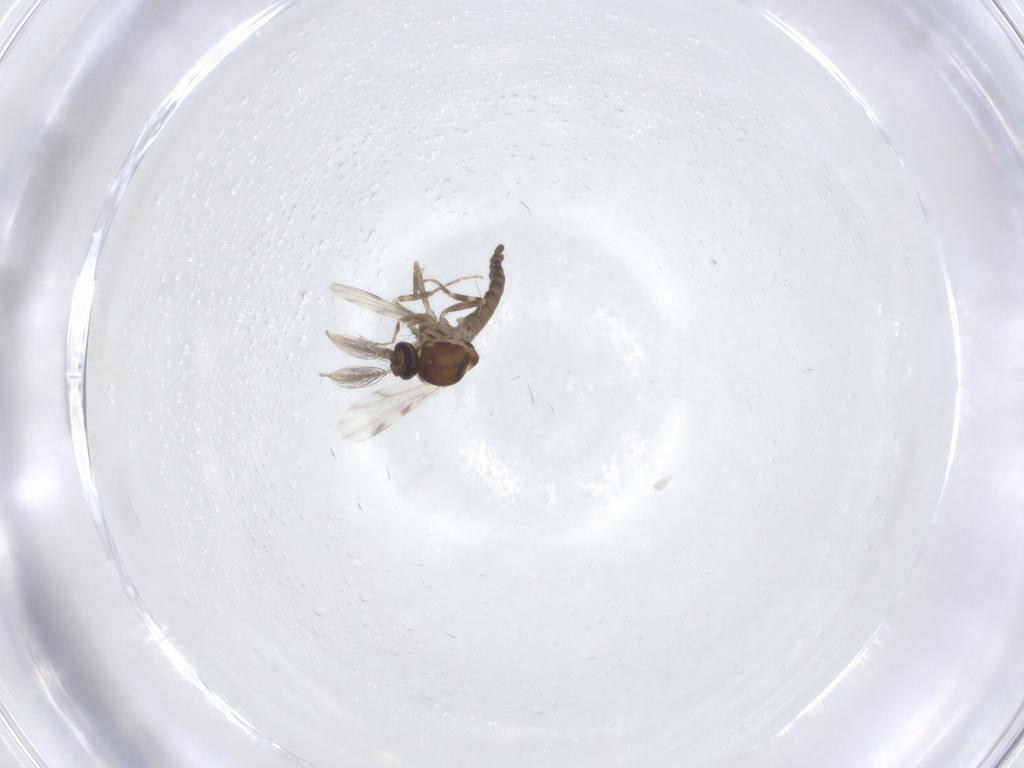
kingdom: Animalia
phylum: Arthropoda
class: Insecta
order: Diptera
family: Ceratopogonidae
